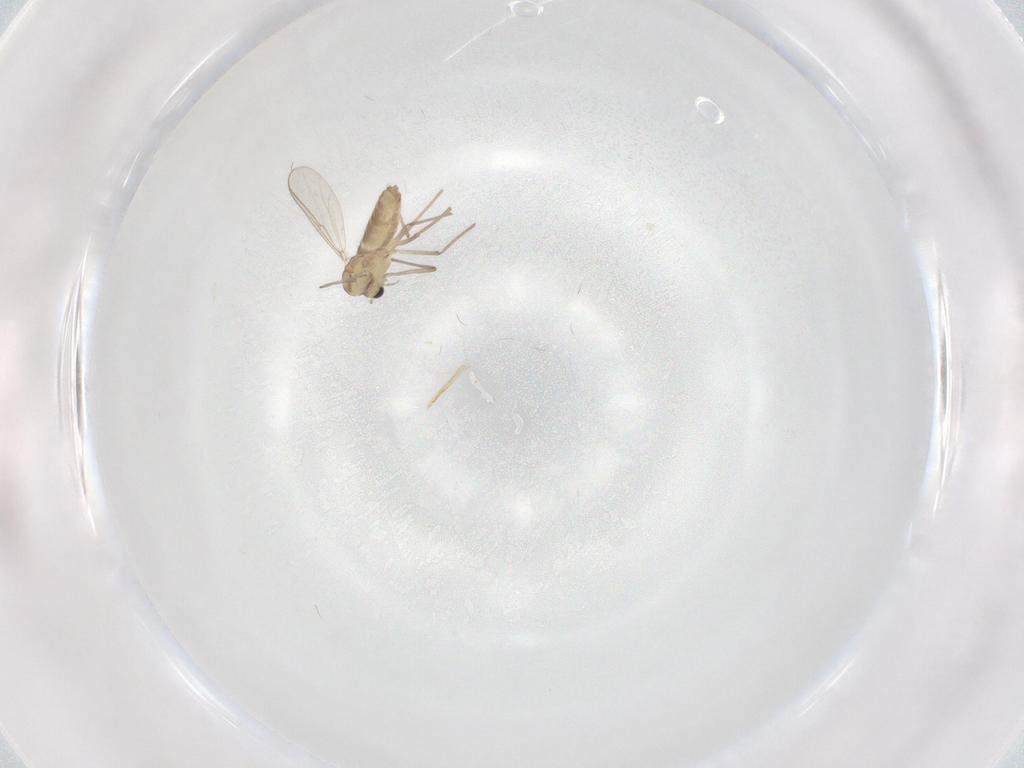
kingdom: Animalia
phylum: Arthropoda
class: Insecta
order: Diptera
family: Chironomidae
